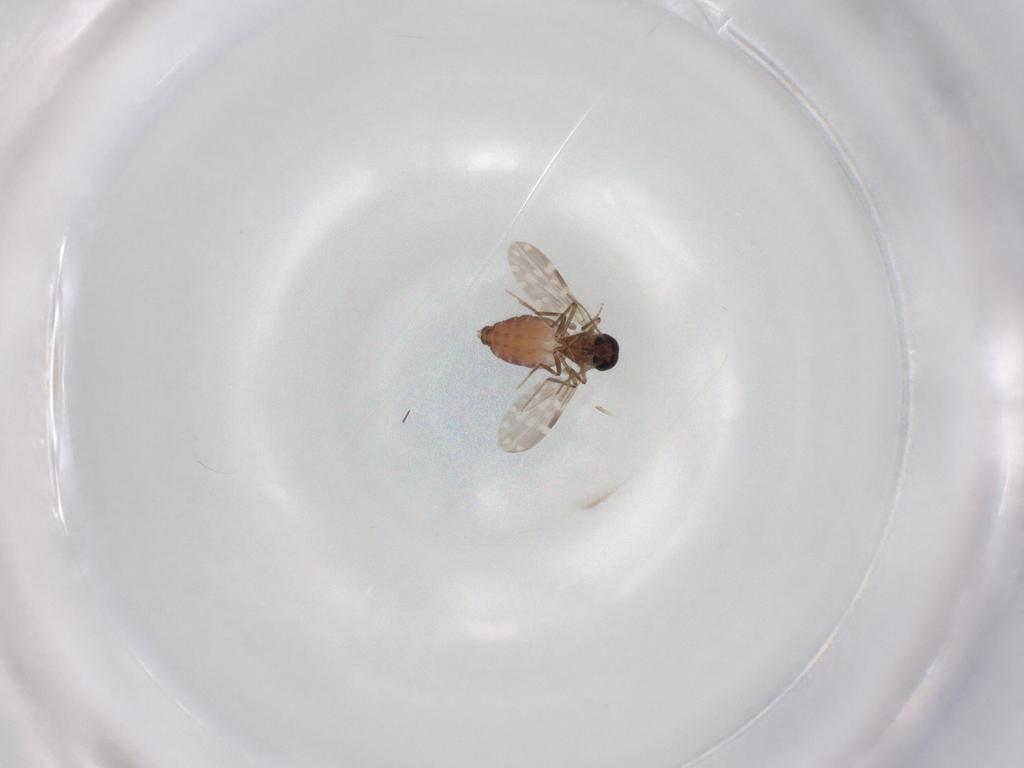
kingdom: Animalia
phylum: Arthropoda
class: Insecta
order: Diptera
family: Ceratopogonidae
